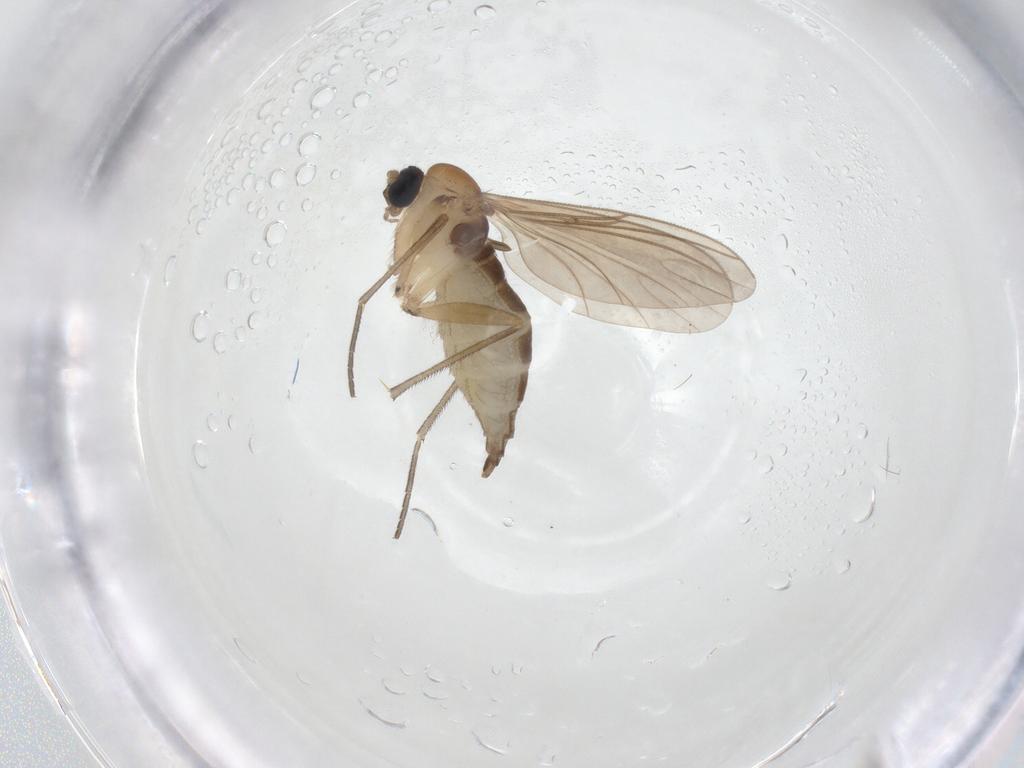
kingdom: Animalia
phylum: Arthropoda
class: Insecta
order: Diptera
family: Sciaridae
